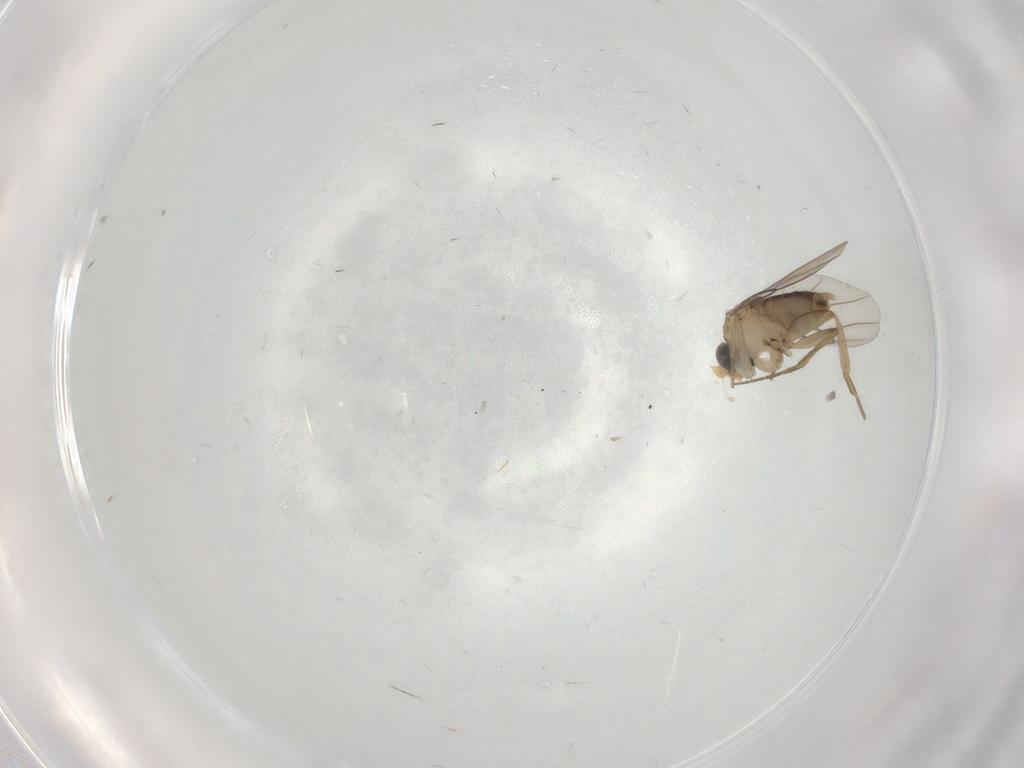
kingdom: Animalia
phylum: Arthropoda
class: Insecta
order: Diptera
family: Phoridae
